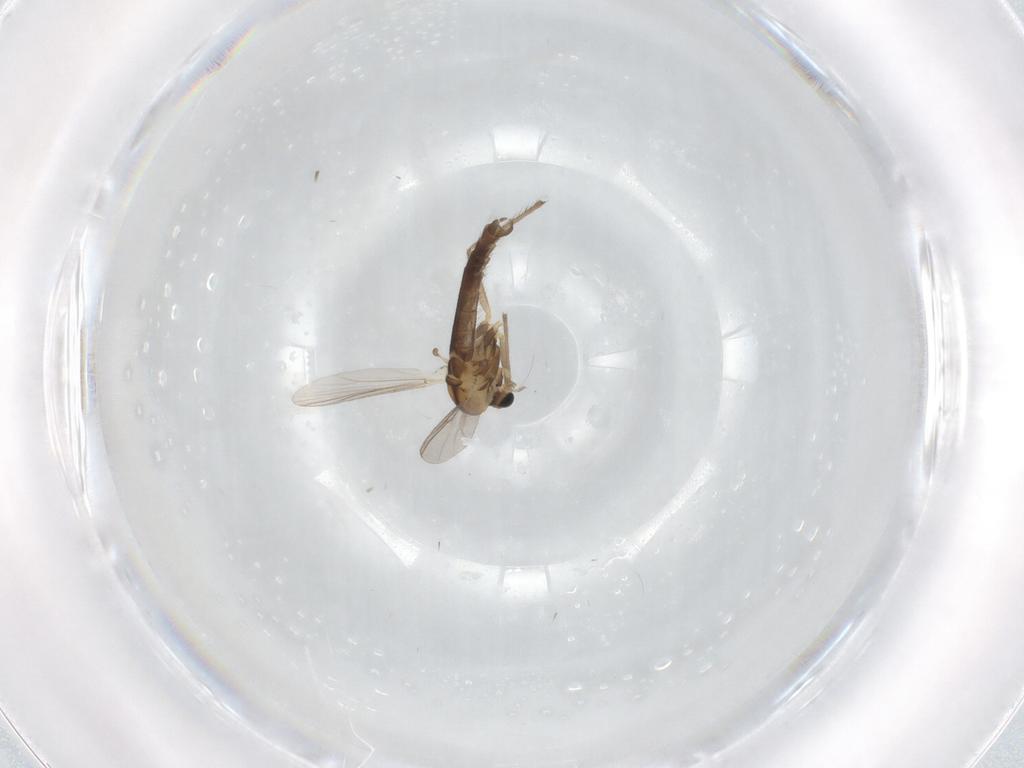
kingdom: Animalia
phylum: Arthropoda
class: Insecta
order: Diptera
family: Chironomidae
